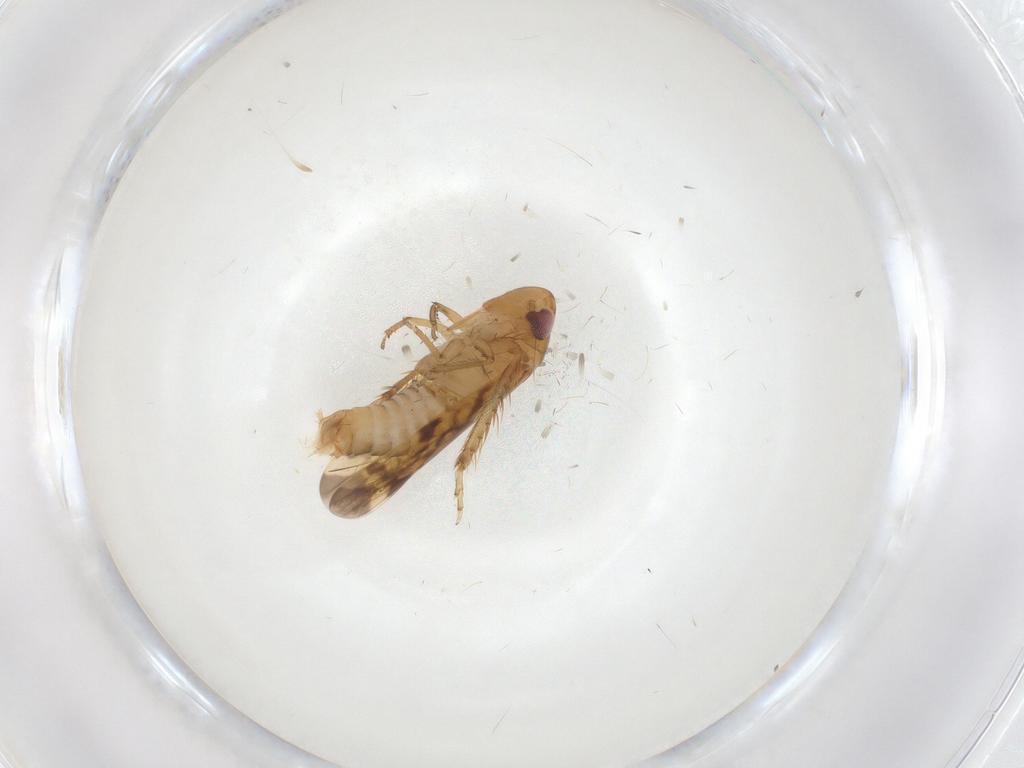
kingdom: Animalia
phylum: Arthropoda
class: Insecta
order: Hemiptera
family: Cicadellidae
